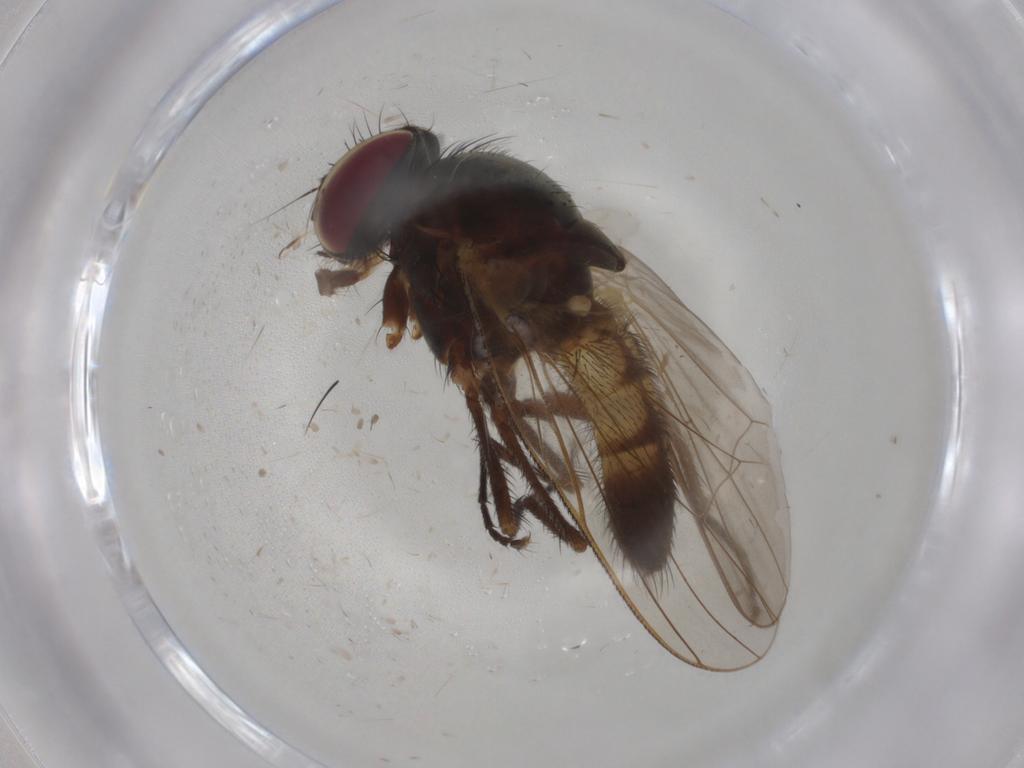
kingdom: Animalia
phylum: Arthropoda
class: Insecta
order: Diptera
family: Fannia
